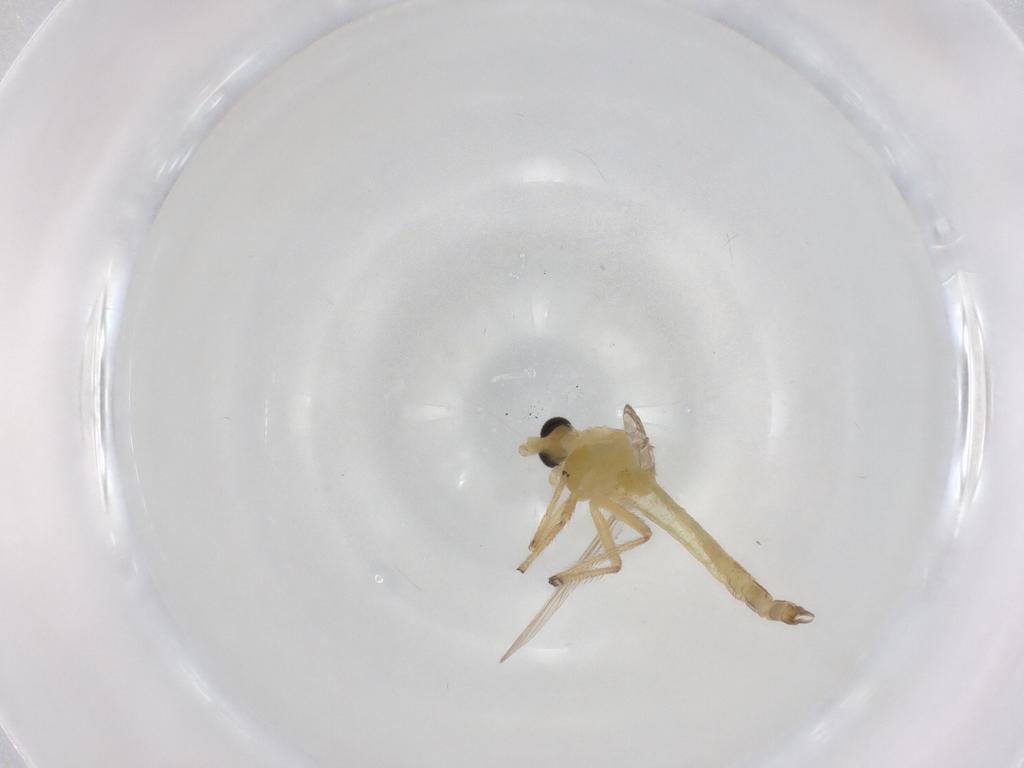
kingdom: Animalia
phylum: Arthropoda
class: Insecta
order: Diptera
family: Chironomidae
